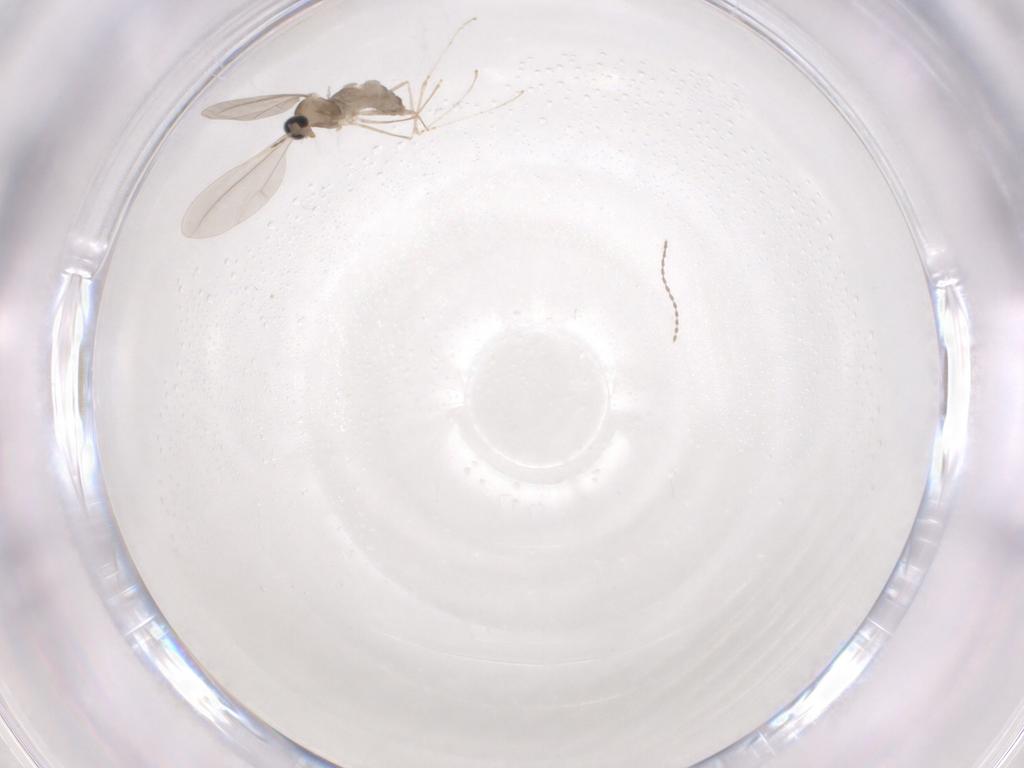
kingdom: Animalia
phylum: Arthropoda
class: Insecta
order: Diptera
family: Cecidomyiidae
